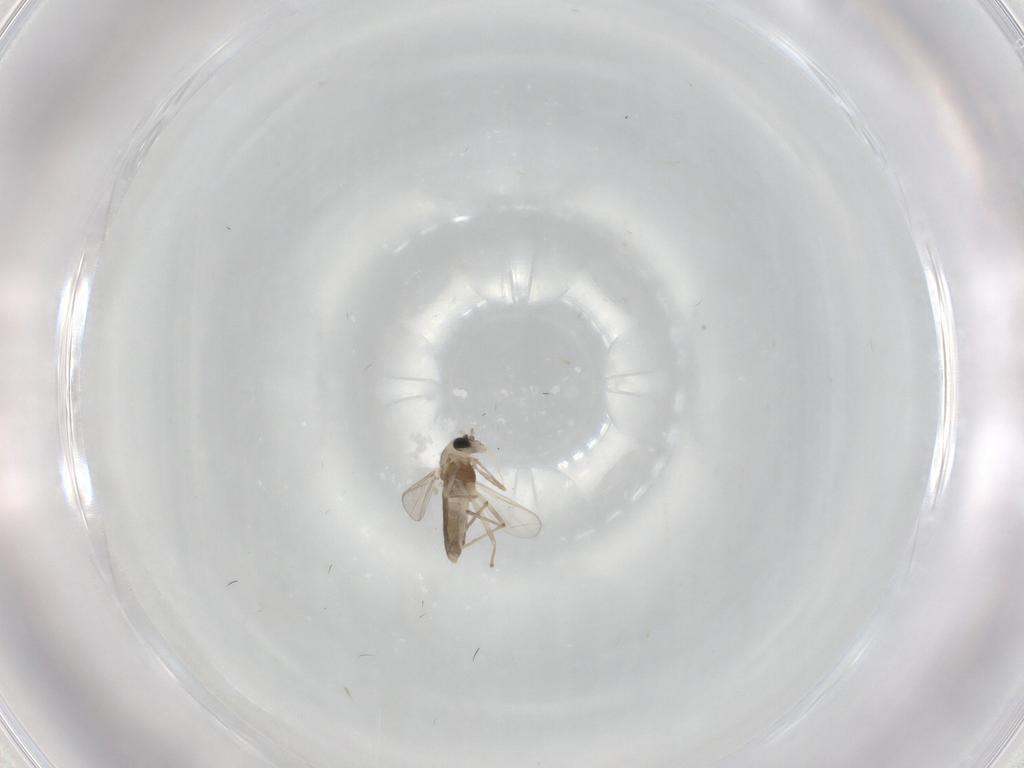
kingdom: Animalia
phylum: Arthropoda
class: Insecta
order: Diptera
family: Chironomidae
